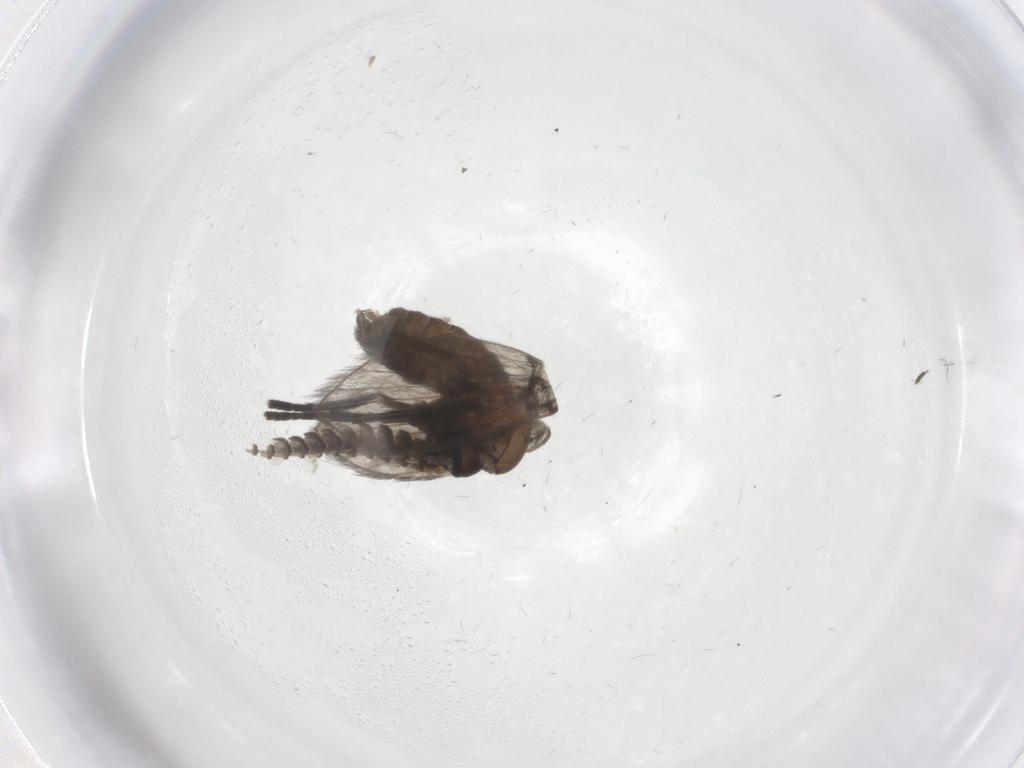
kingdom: Animalia
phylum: Arthropoda
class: Insecta
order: Diptera
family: Psychodidae
